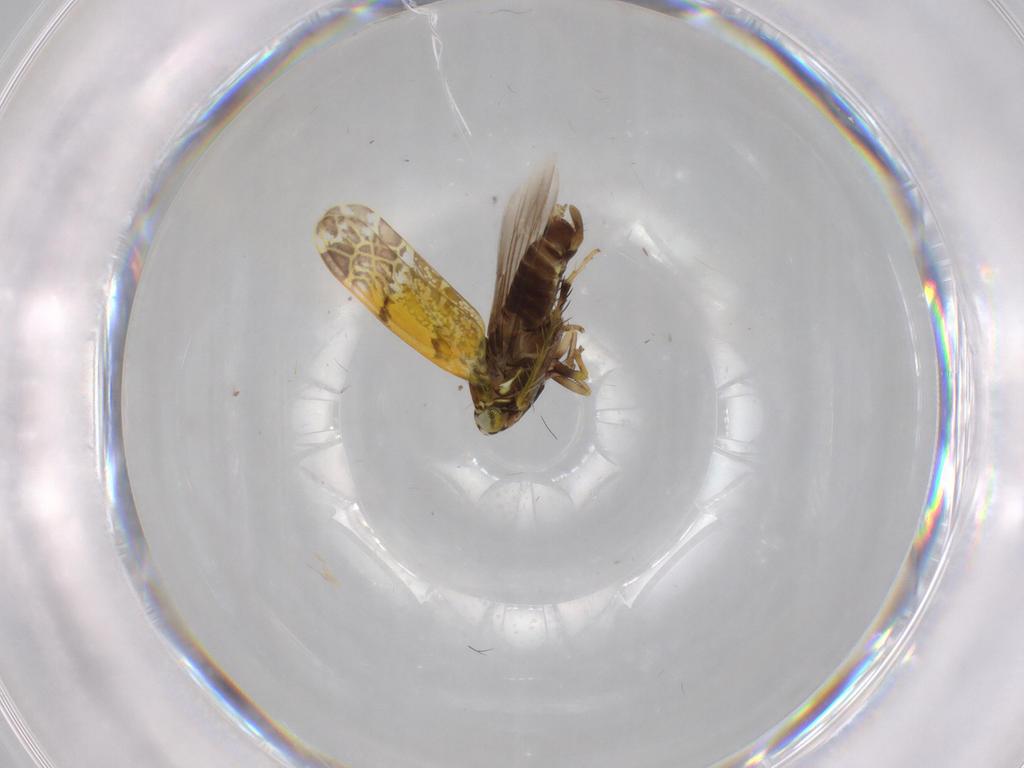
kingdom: Animalia
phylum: Arthropoda
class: Insecta
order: Hemiptera
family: Cicadellidae
